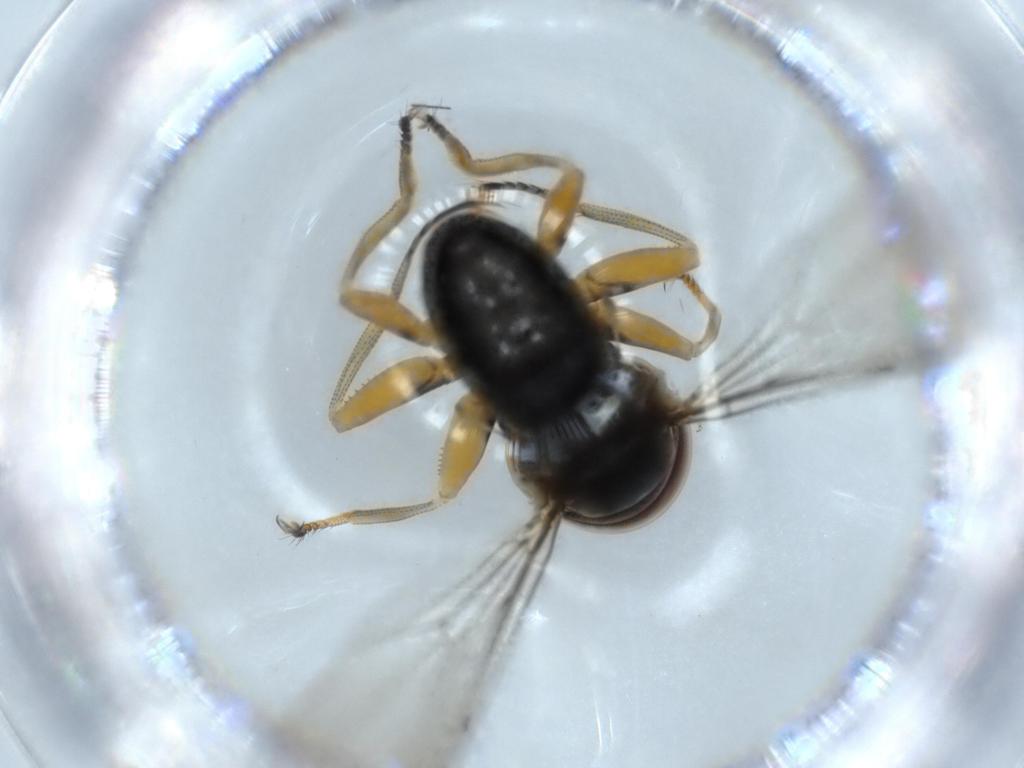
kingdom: Animalia
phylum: Arthropoda
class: Insecta
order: Diptera
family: Pipunculidae
